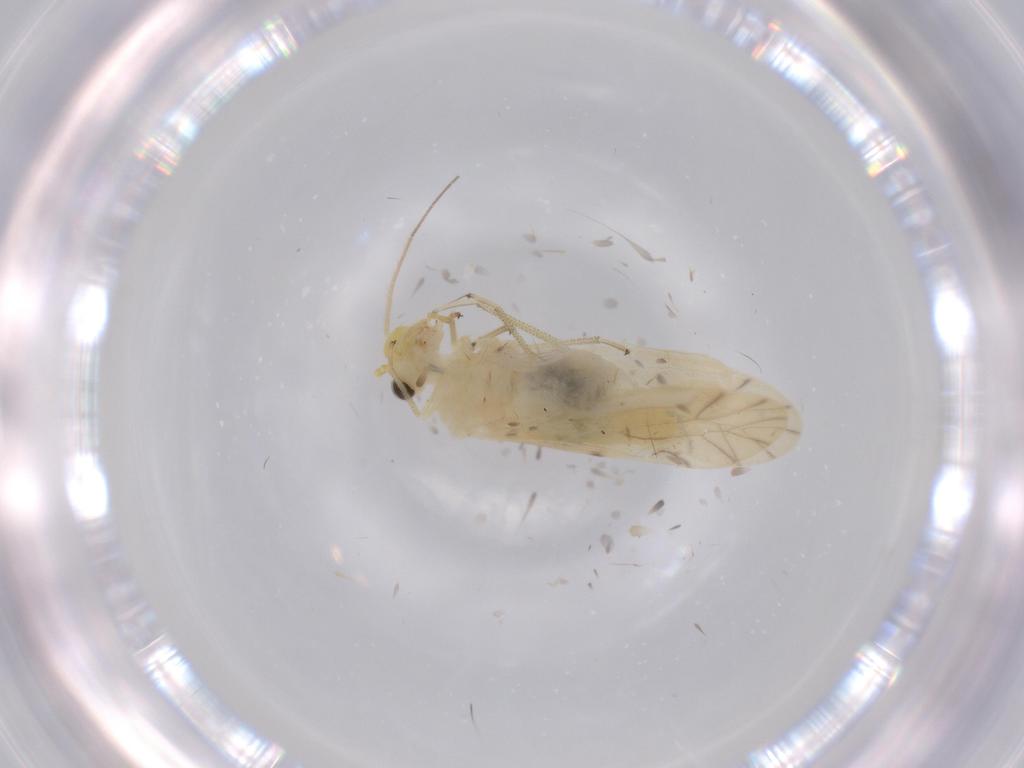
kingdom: Animalia
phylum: Arthropoda
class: Insecta
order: Psocodea
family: Caeciliusidae
